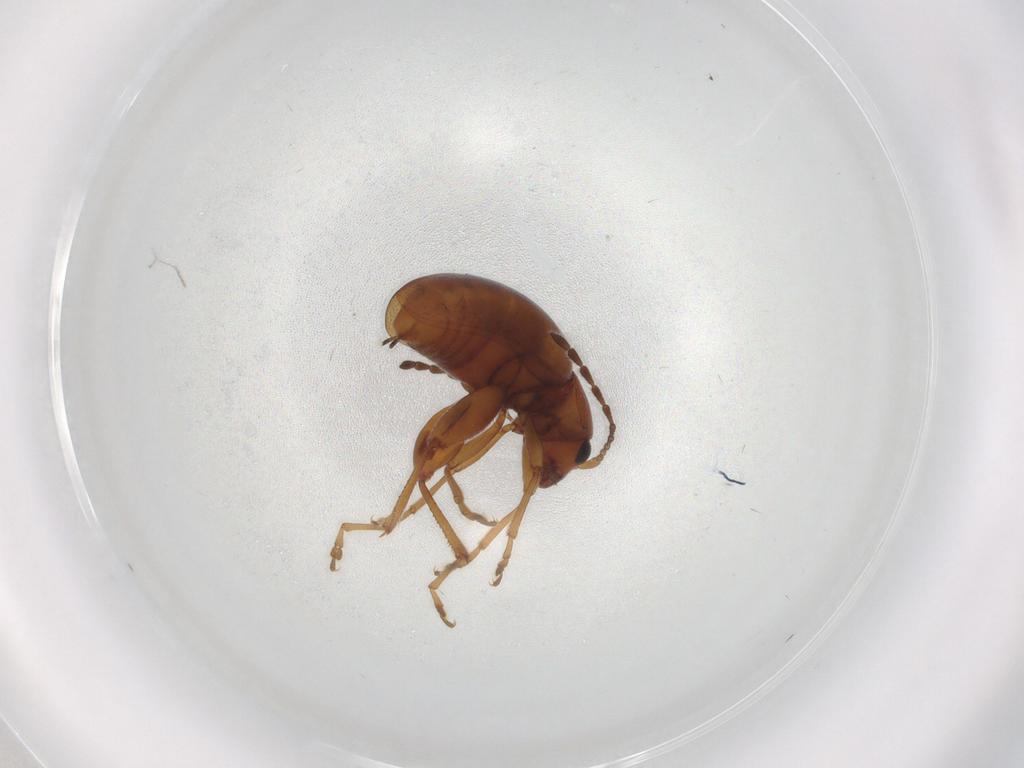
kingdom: Animalia
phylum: Arthropoda
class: Insecta
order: Coleoptera
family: Chrysomelidae
